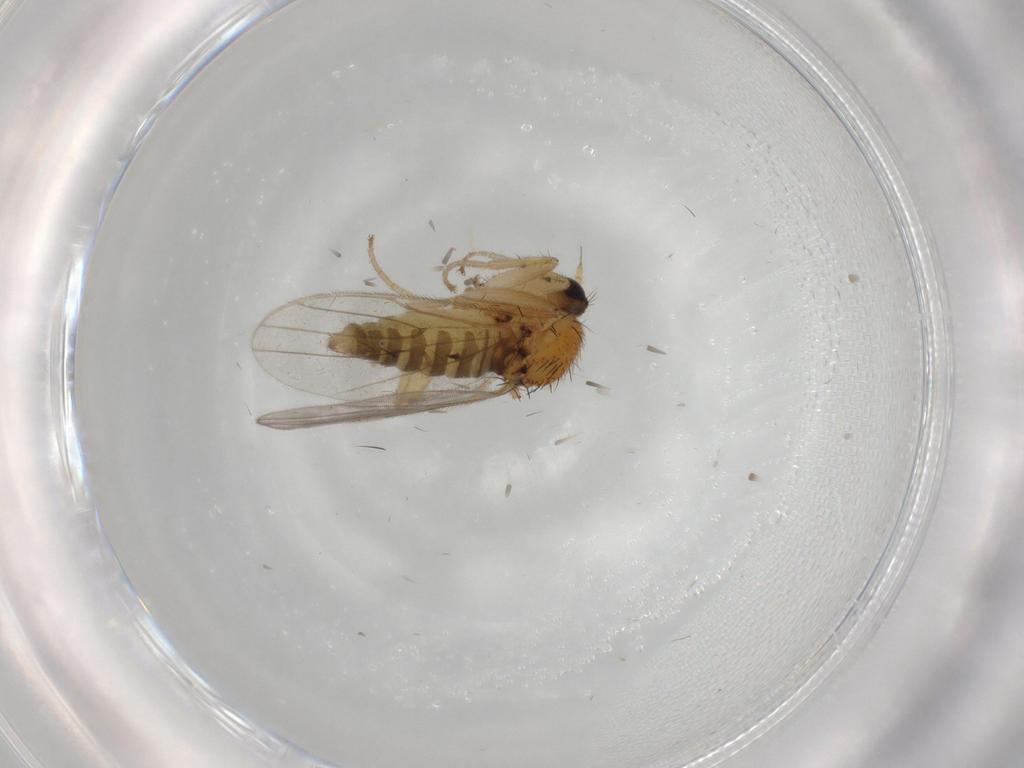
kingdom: Animalia
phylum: Arthropoda
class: Insecta
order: Diptera
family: Hybotidae
